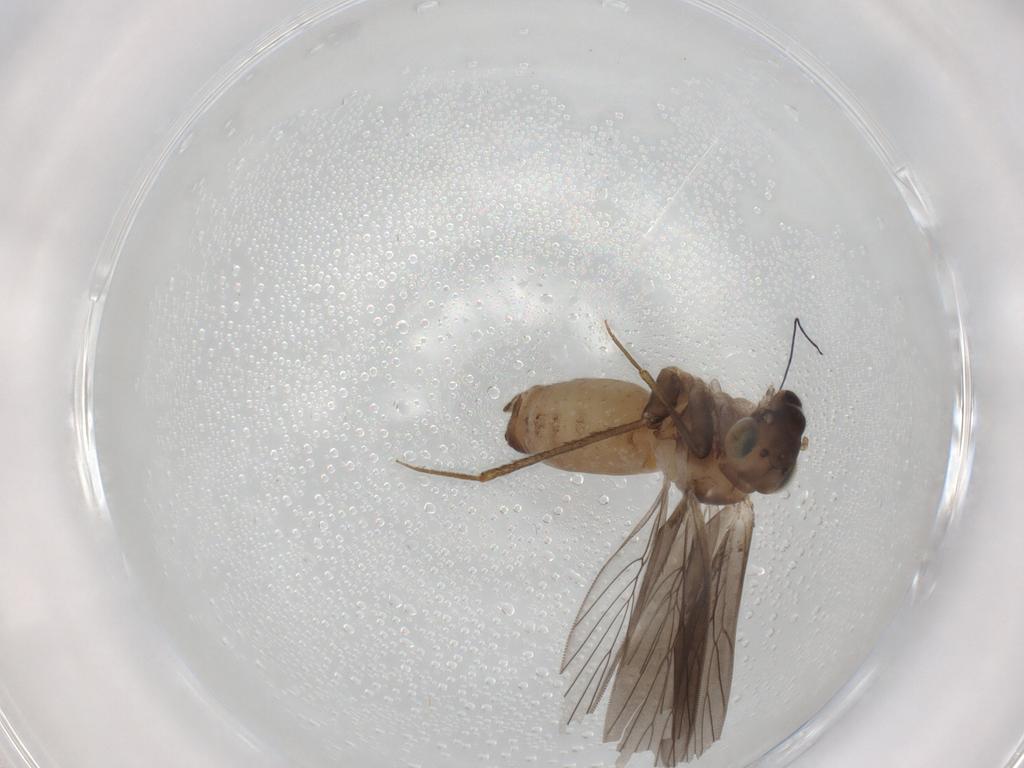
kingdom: Animalia
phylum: Arthropoda
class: Insecta
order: Psocodea
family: Lepidopsocidae
